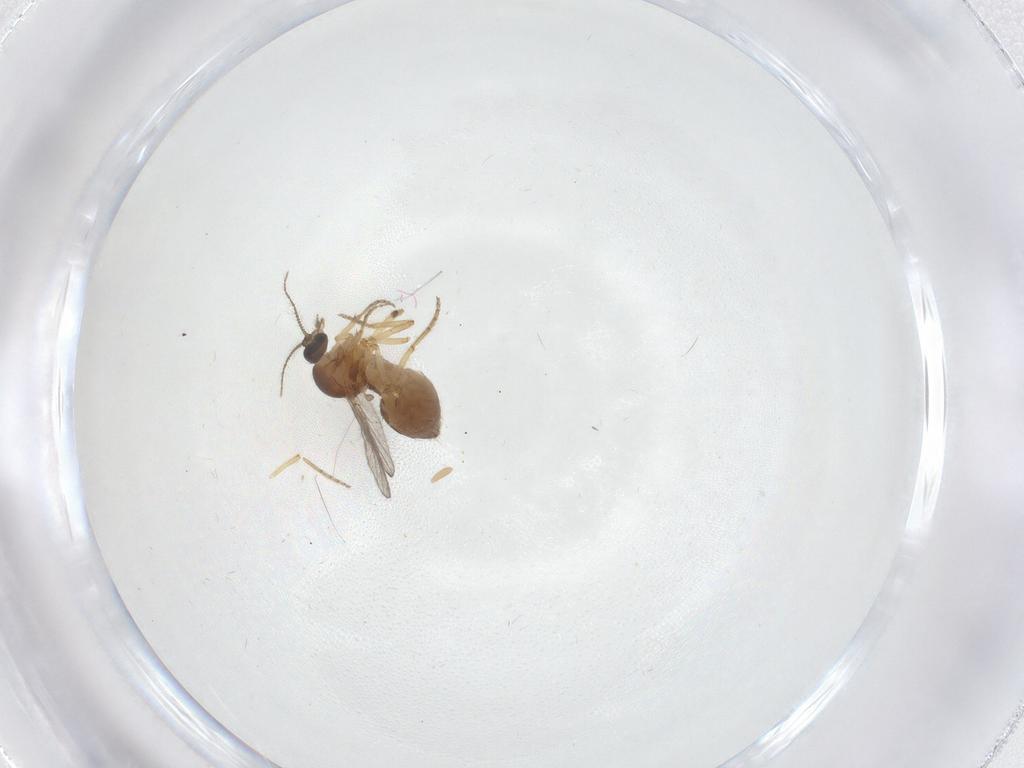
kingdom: Animalia
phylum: Arthropoda
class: Insecta
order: Diptera
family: Ceratopogonidae
